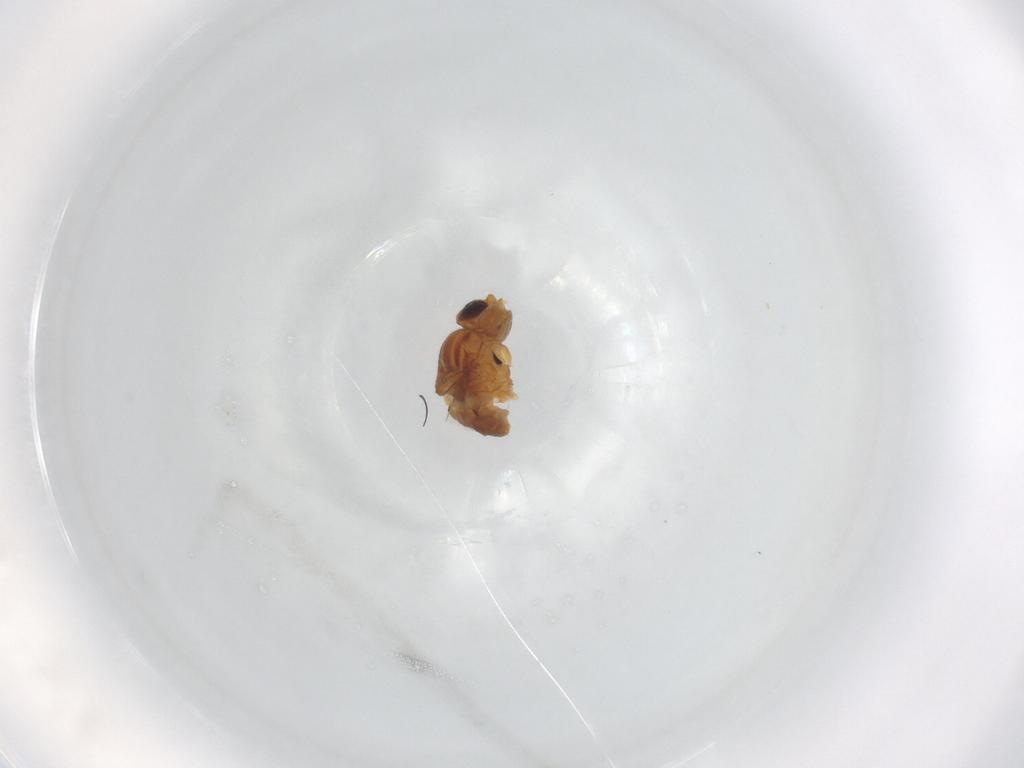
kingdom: Animalia
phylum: Arthropoda
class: Insecta
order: Diptera
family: Chloropidae
